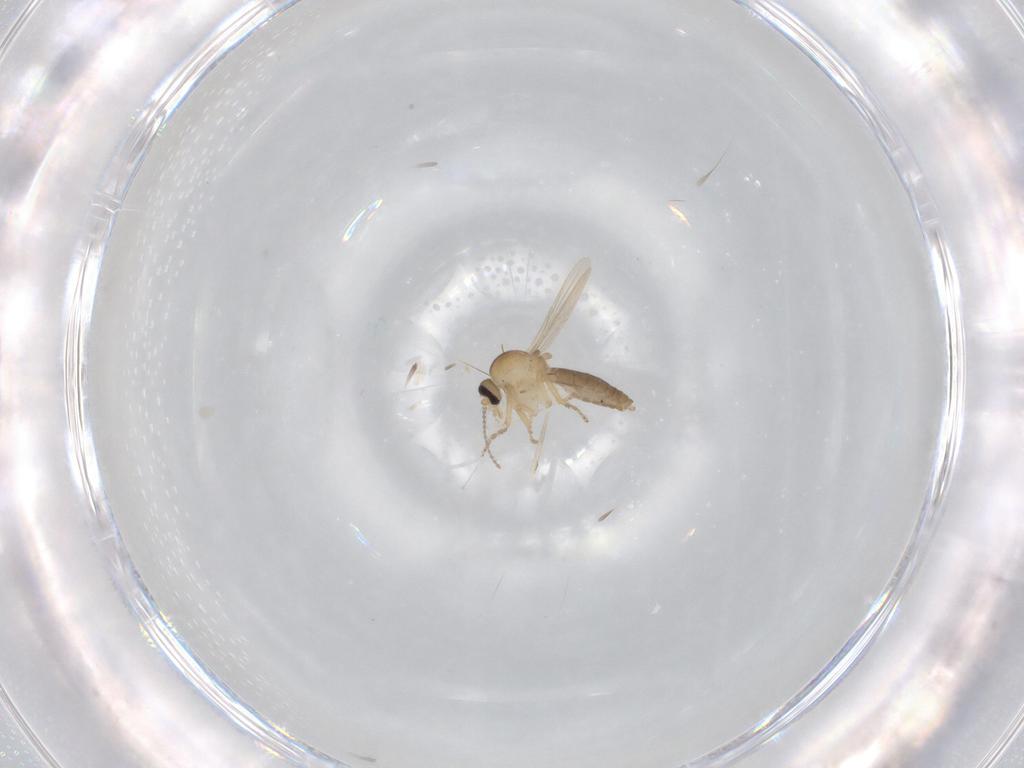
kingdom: Animalia
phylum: Arthropoda
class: Insecta
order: Diptera
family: Ceratopogonidae
